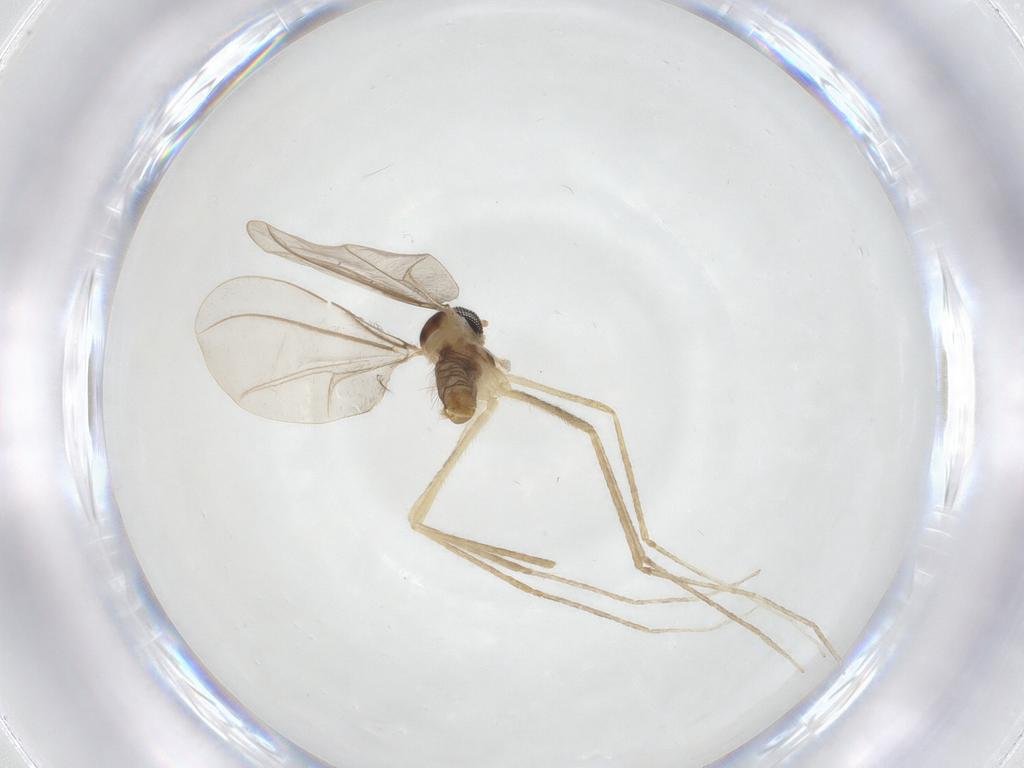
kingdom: Animalia
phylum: Arthropoda
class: Insecta
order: Diptera
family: Cecidomyiidae
